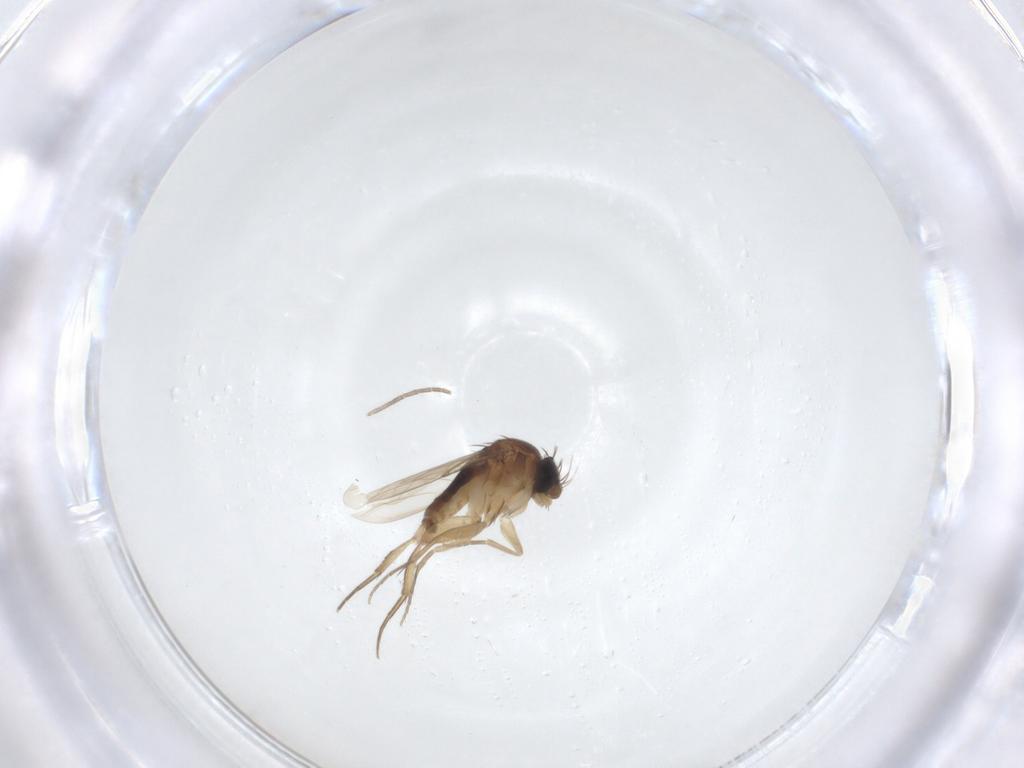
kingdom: Animalia
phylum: Arthropoda
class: Insecta
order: Diptera
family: Phoridae
